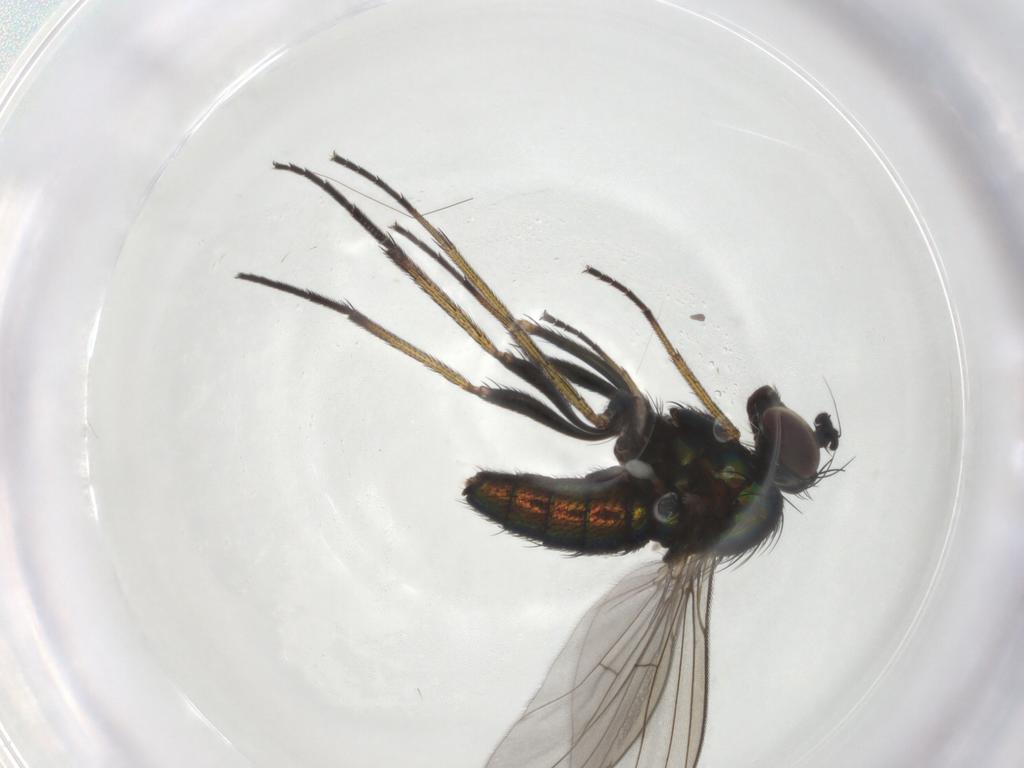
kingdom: Animalia
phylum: Arthropoda
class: Insecta
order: Diptera
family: Dolichopodidae
